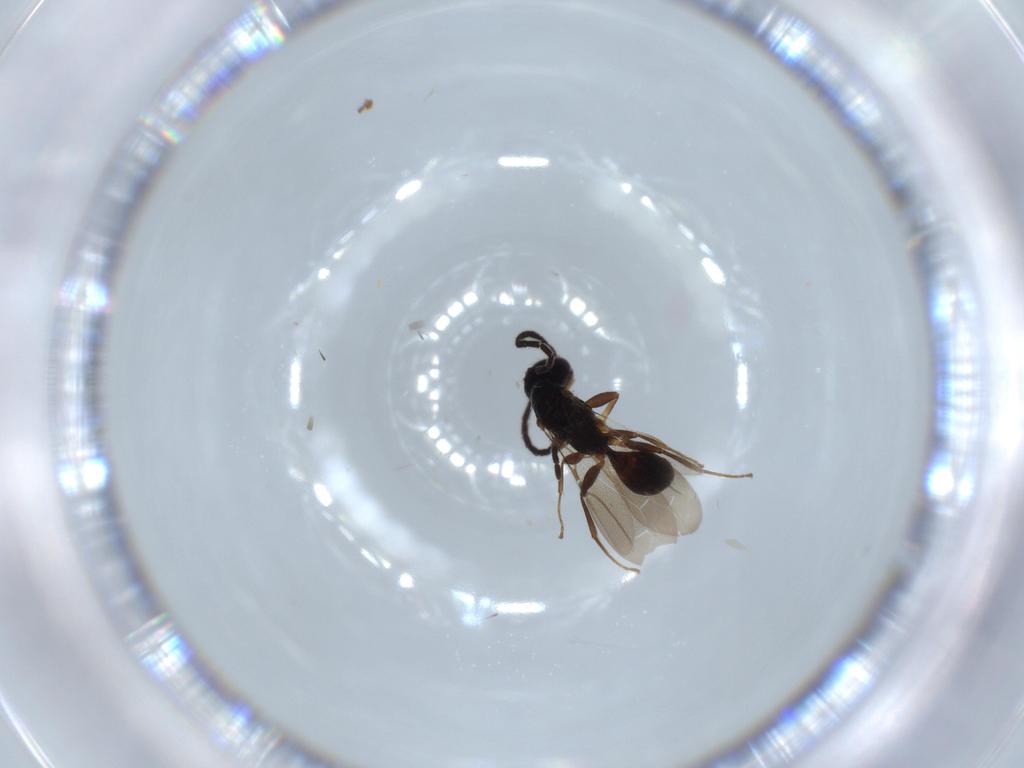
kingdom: Animalia
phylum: Arthropoda
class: Insecta
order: Hymenoptera
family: Bethylidae
